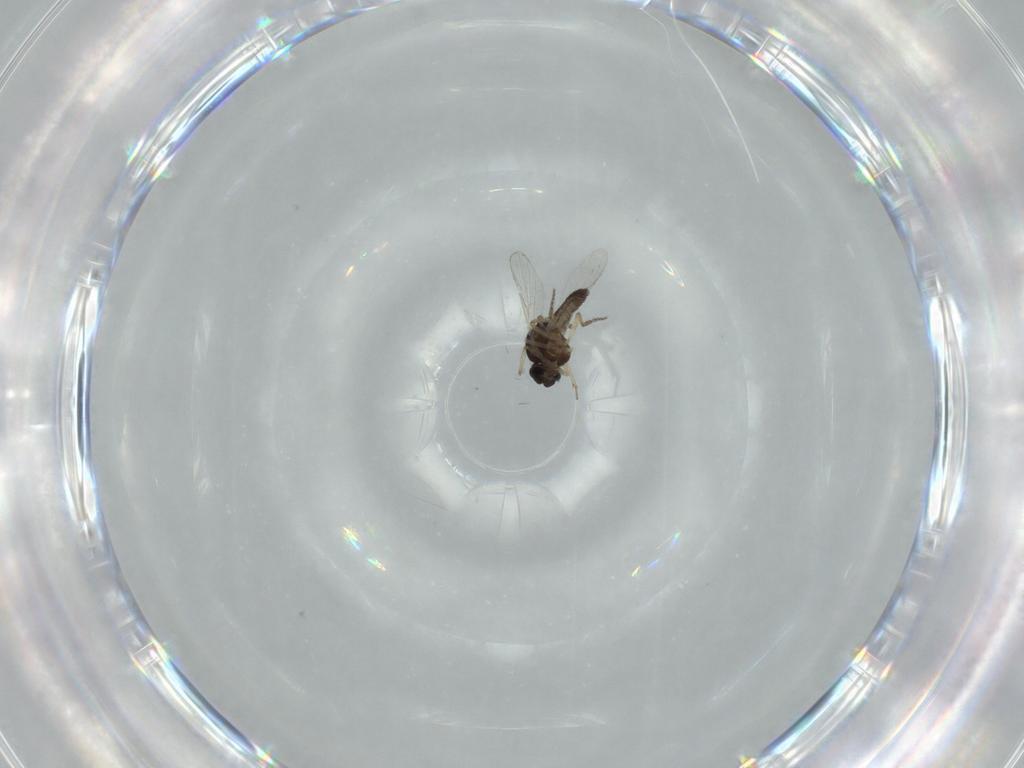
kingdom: Animalia
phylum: Arthropoda
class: Insecta
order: Diptera
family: Ceratopogonidae
